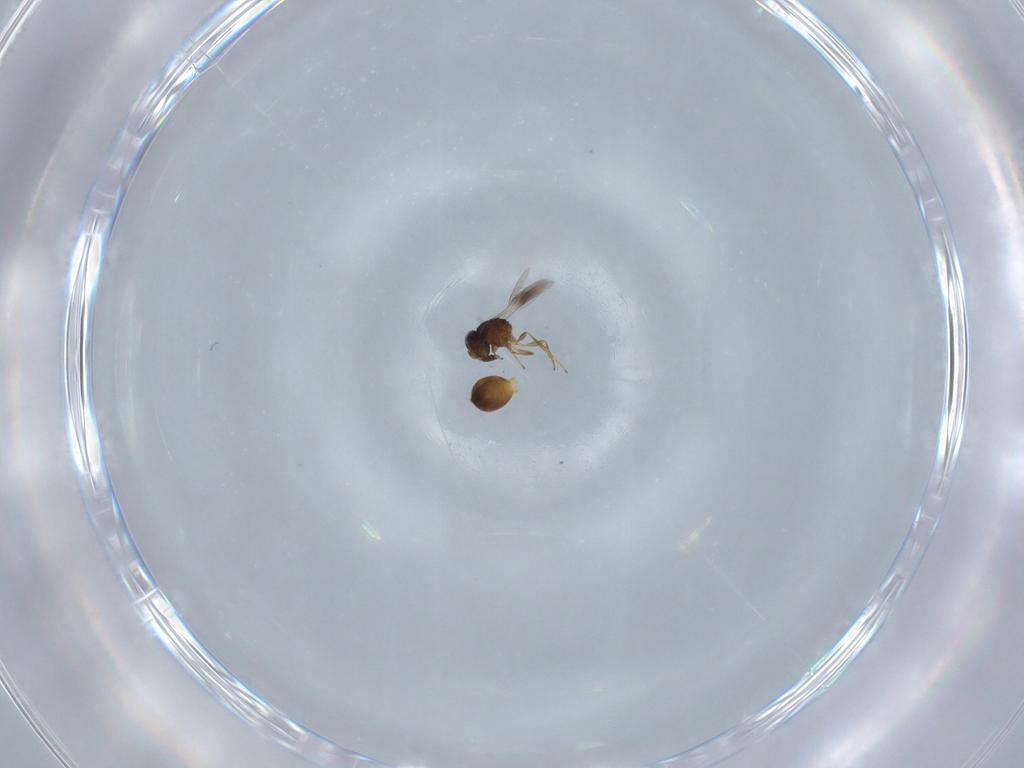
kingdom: Animalia
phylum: Arthropoda
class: Insecta
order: Hymenoptera
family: Scelionidae
